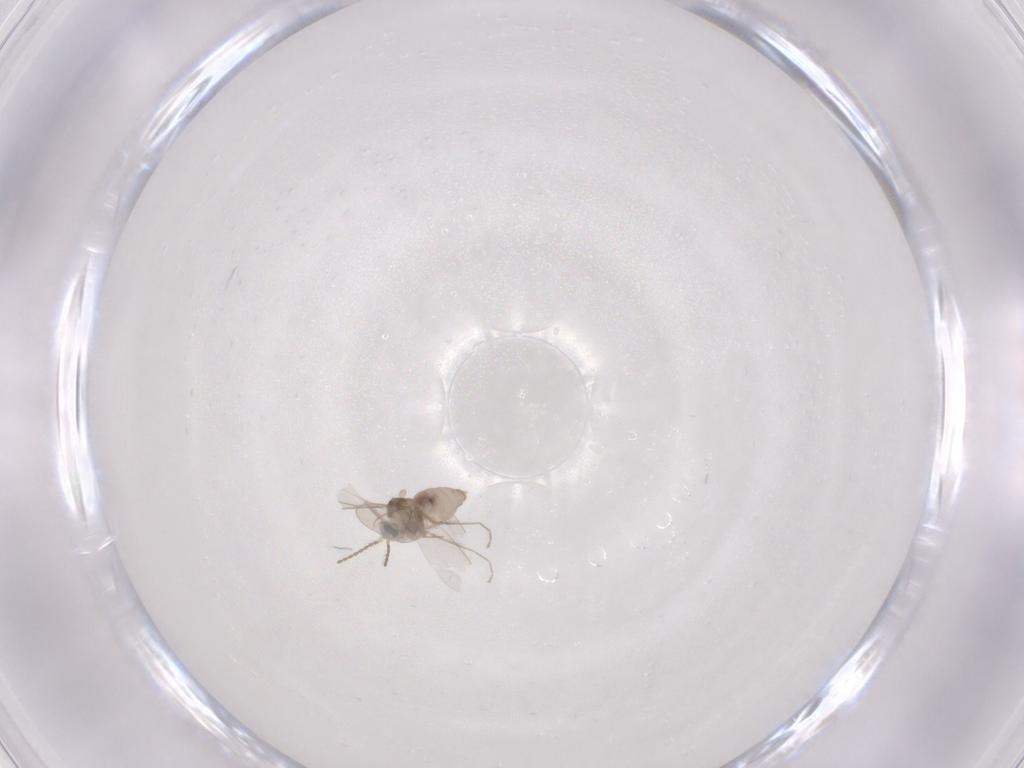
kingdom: Animalia
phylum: Arthropoda
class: Insecta
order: Diptera
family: Cecidomyiidae
